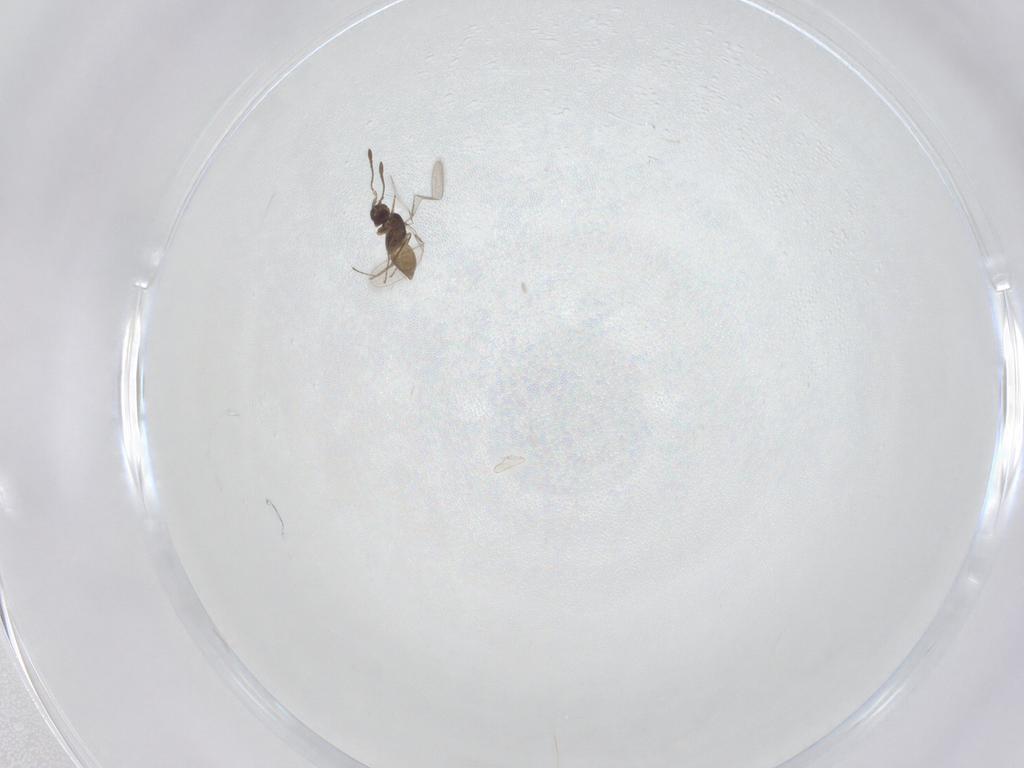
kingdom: Animalia
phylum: Arthropoda
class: Insecta
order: Hymenoptera
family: Mymaridae
